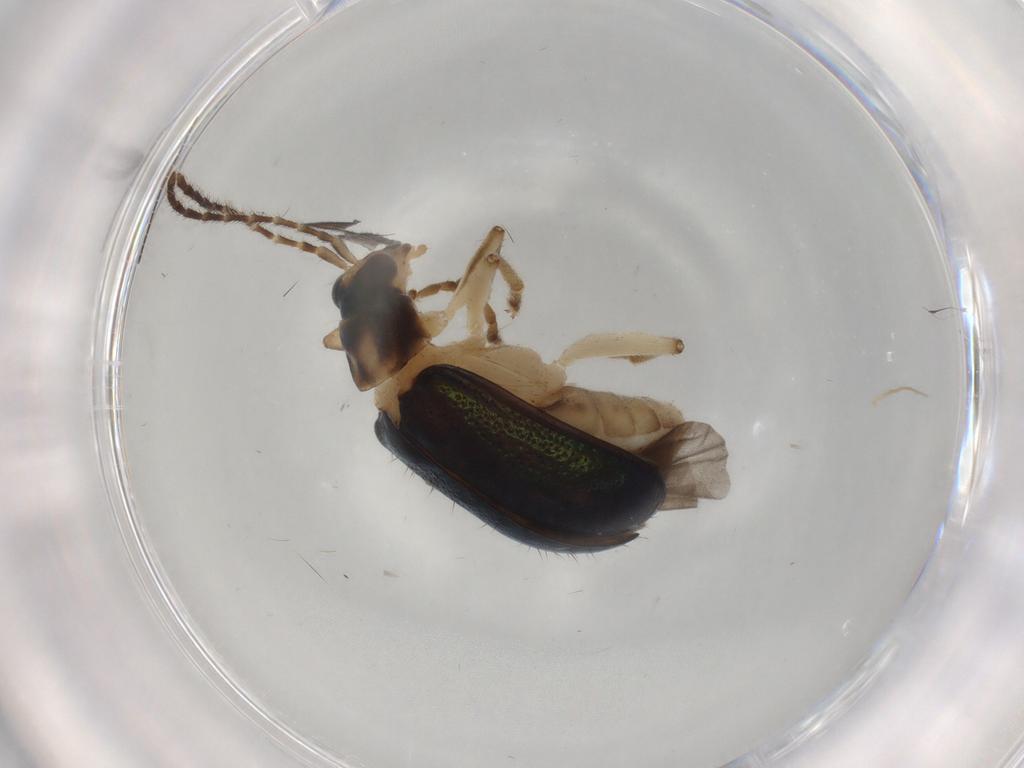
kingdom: Animalia
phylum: Arthropoda
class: Insecta
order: Coleoptera
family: Chrysomelidae
